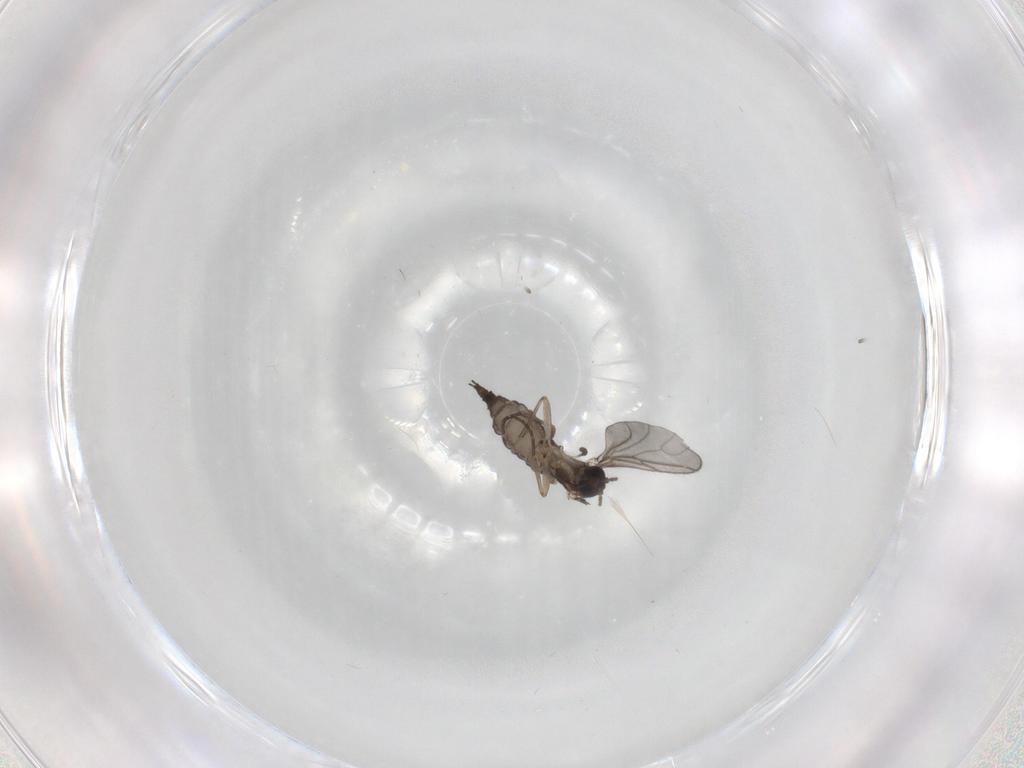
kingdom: Animalia
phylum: Arthropoda
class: Insecta
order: Diptera
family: Sciaridae
